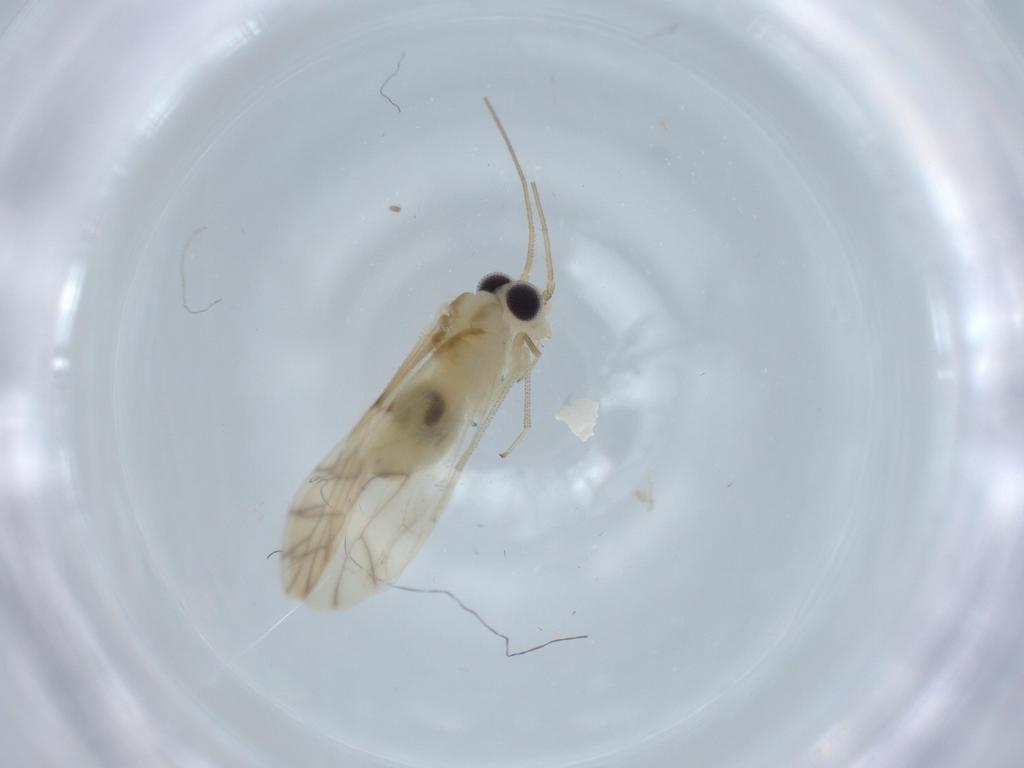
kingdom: Animalia
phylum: Arthropoda
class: Insecta
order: Psocodea
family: Caeciliusidae
